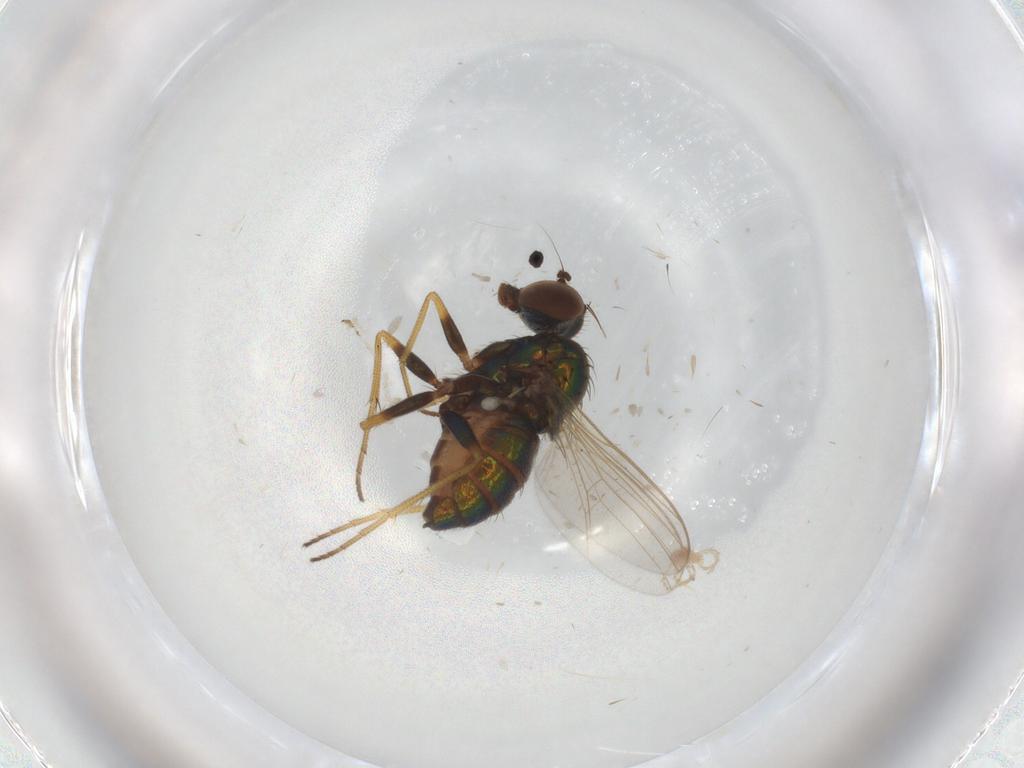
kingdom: Animalia
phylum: Arthropoda
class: Insecta
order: Diptera
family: Dolichopodidae
